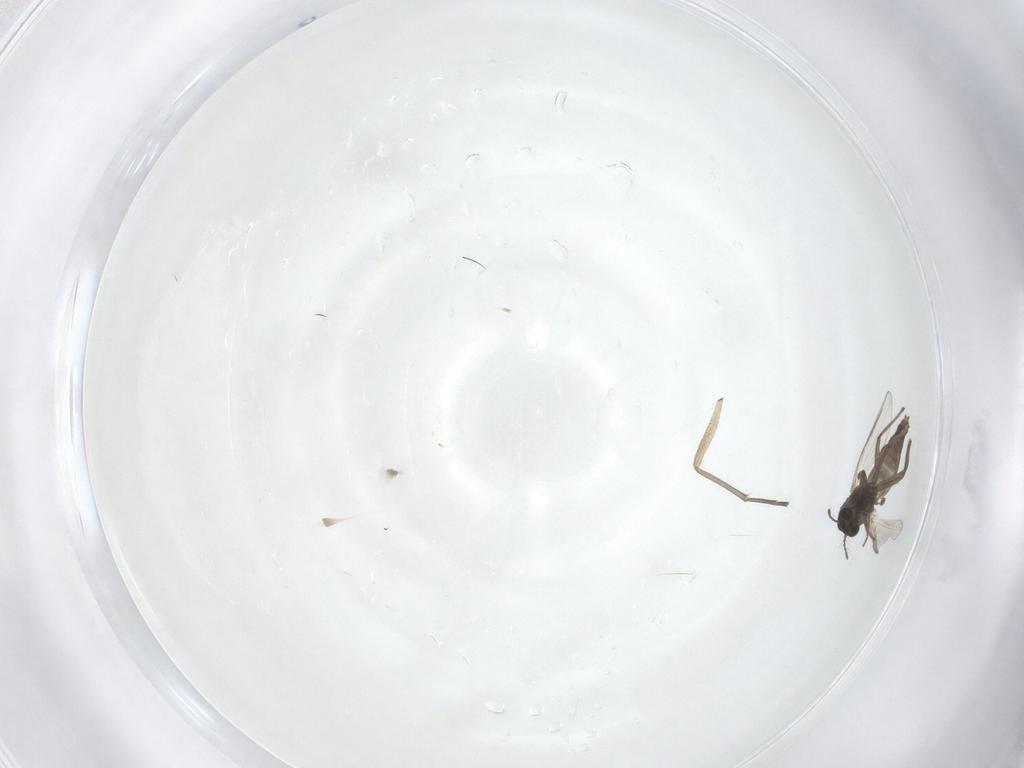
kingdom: Animalia
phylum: Arthropoda
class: Insecta
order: Diptera
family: Chironomidae
